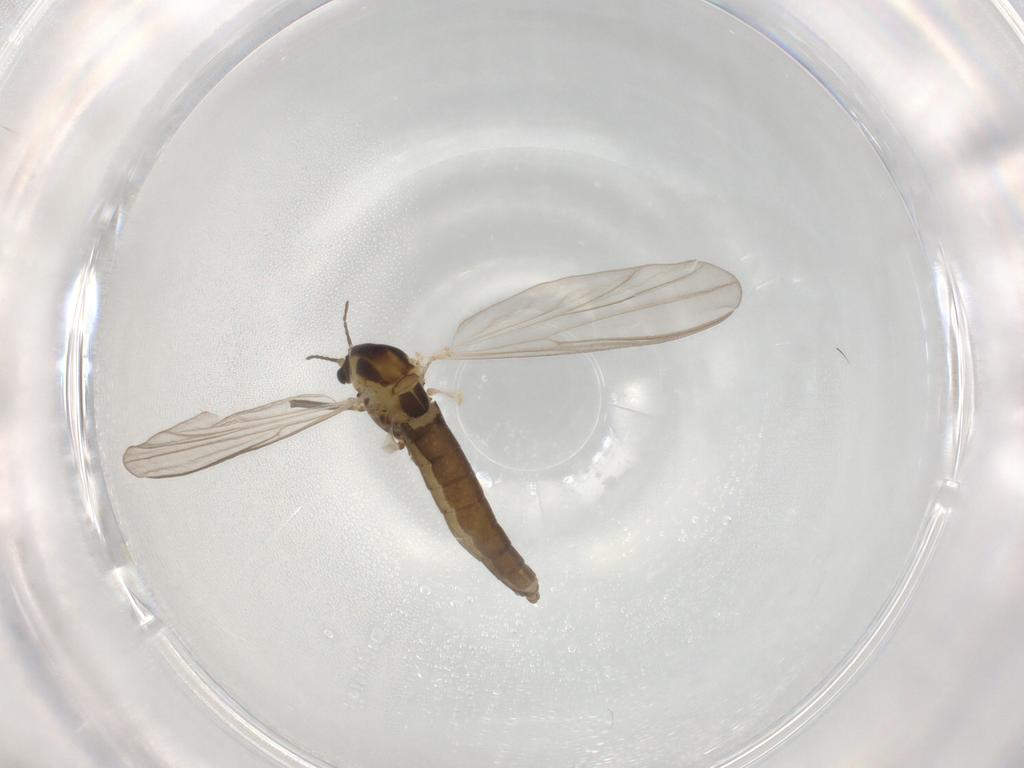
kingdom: Animalia
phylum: Arthropoda
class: Insecta
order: Diptera
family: Chironomidae
